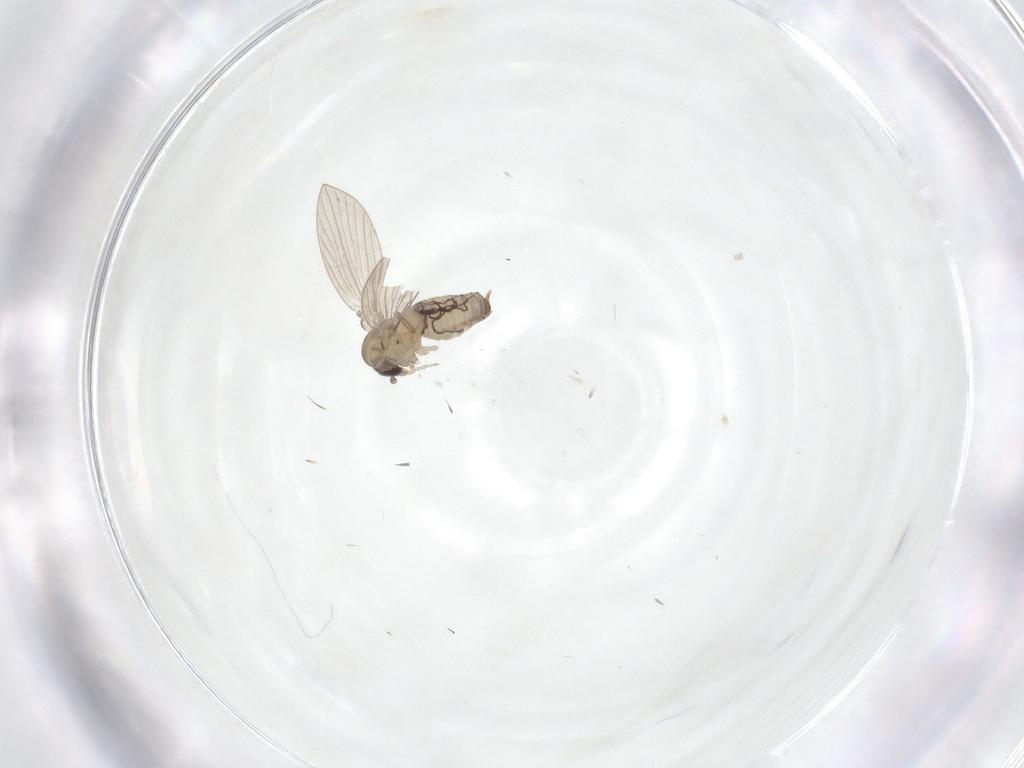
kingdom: Animalia
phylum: Arthropoda
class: Insecta
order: Diptera
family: Psychodidae
